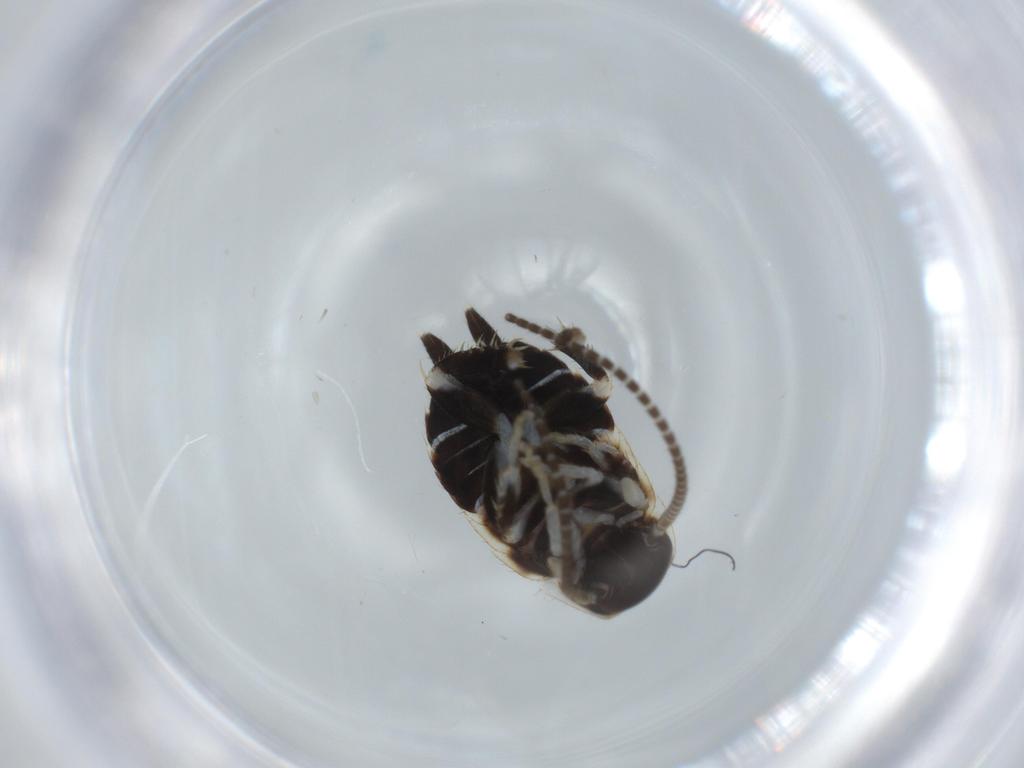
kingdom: Animalia
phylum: Arthropoda
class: Insecta
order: Blattodea
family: Ectobiidae
